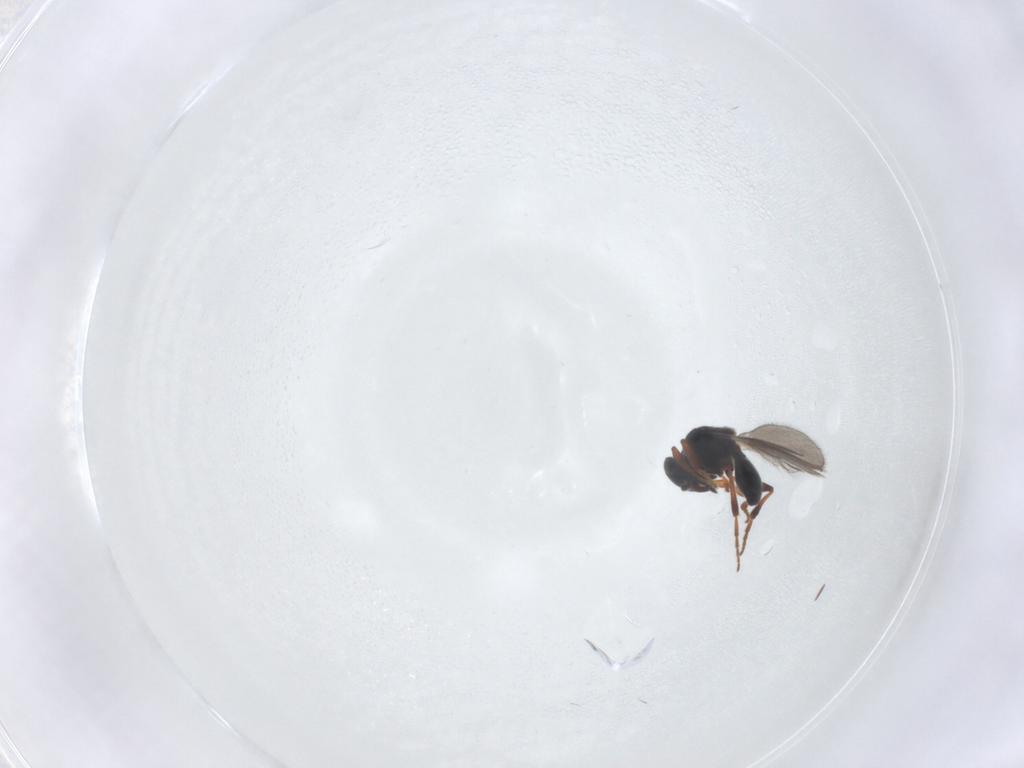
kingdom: Animalia
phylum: Arthropoda
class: Insecta
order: Hymenoptera
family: Platygastridae
